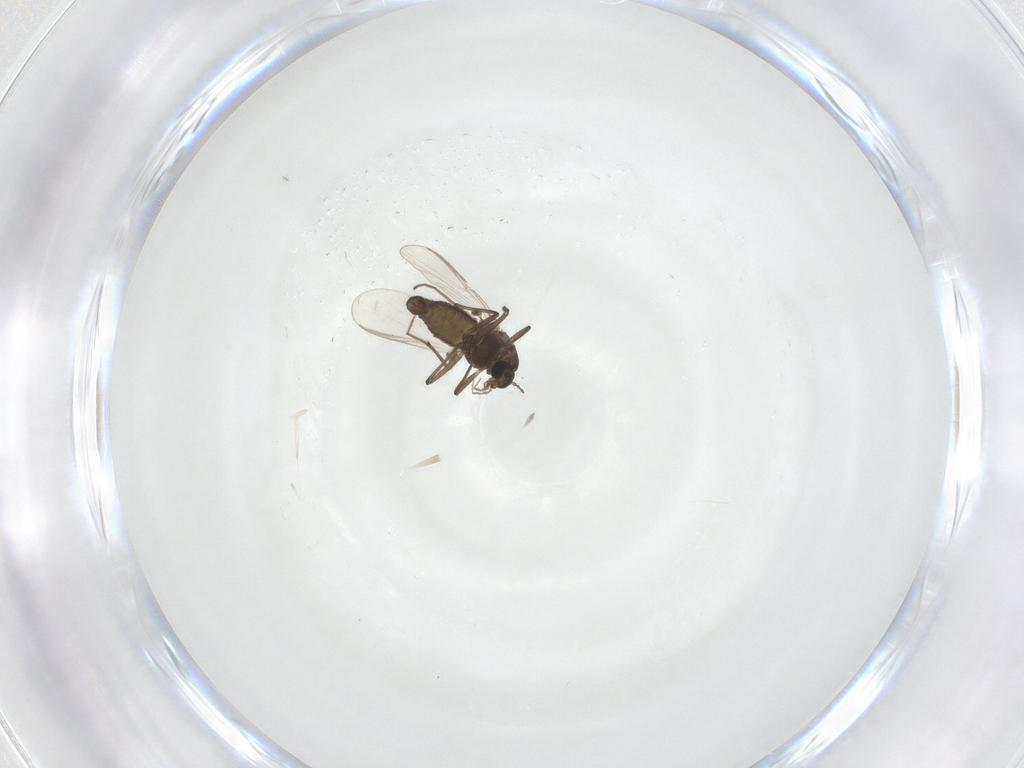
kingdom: Animalia
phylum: Arthropoda
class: Insecta
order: Diptera
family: Chironomidae
